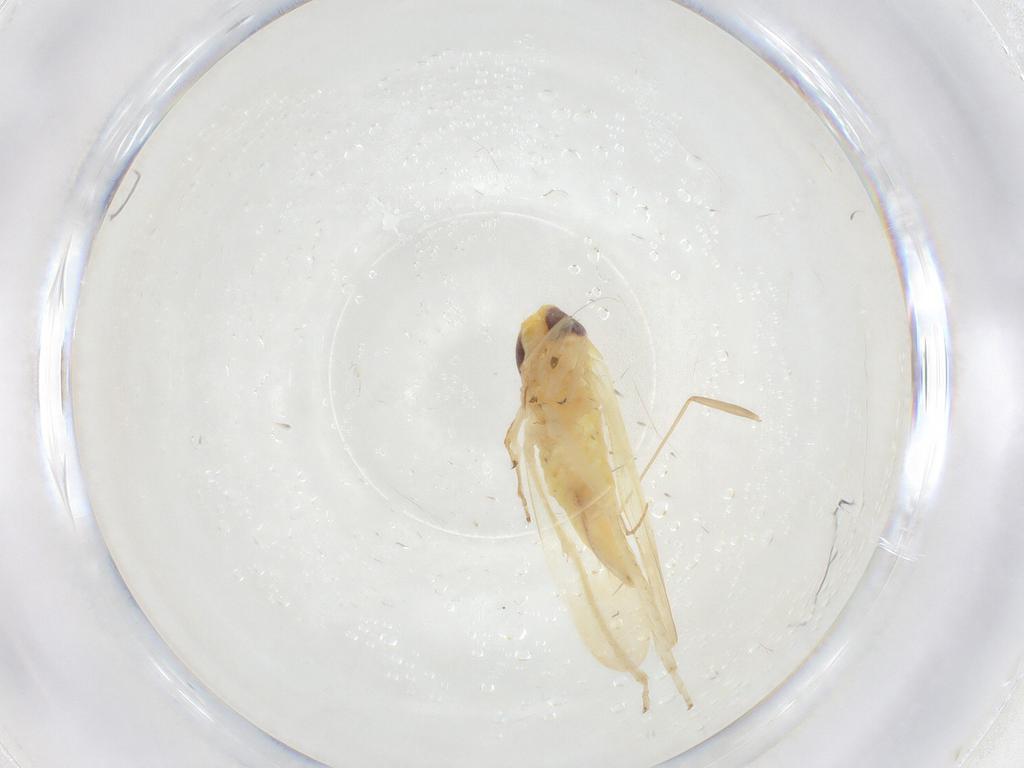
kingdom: Animalia
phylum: Arthropoda
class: Insecta
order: Hemiptera
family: Cicadellidae
